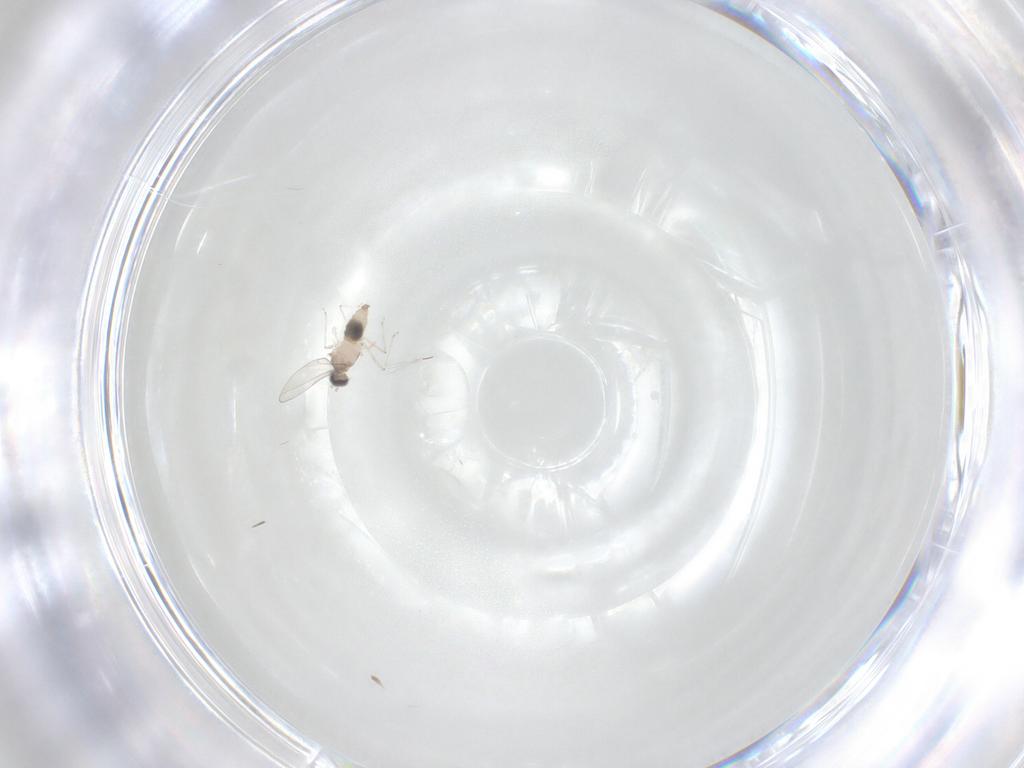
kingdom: Animalia
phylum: Arthropoda
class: Insecta
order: Diptera
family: Cecidomyiidae
